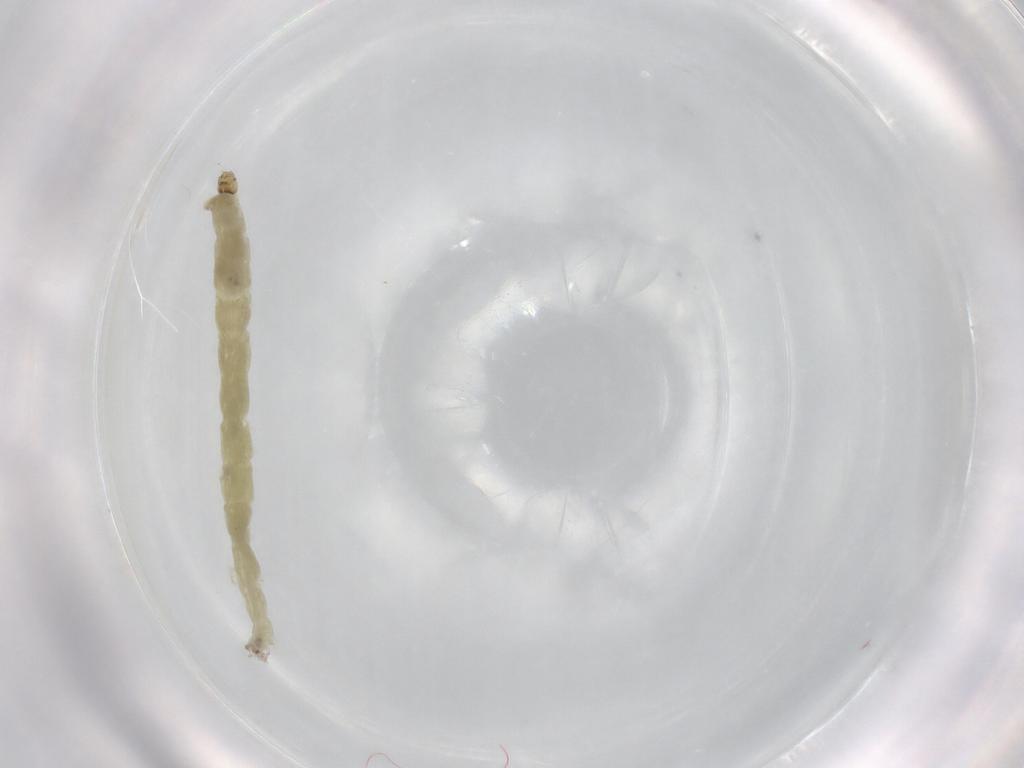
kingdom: Animalia
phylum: Arthropoda
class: Insecta
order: Diptera
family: Chironomidae
